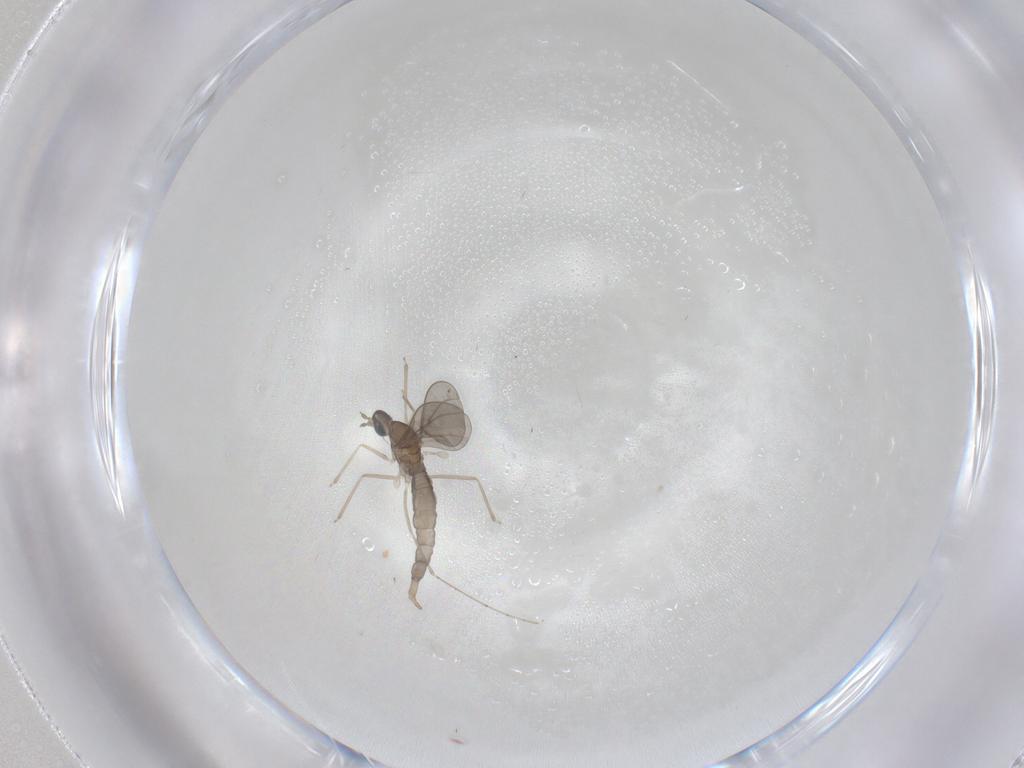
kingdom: Animalia
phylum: Arthropoda
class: Insecta
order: Diptera
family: Cecidomyiidae
